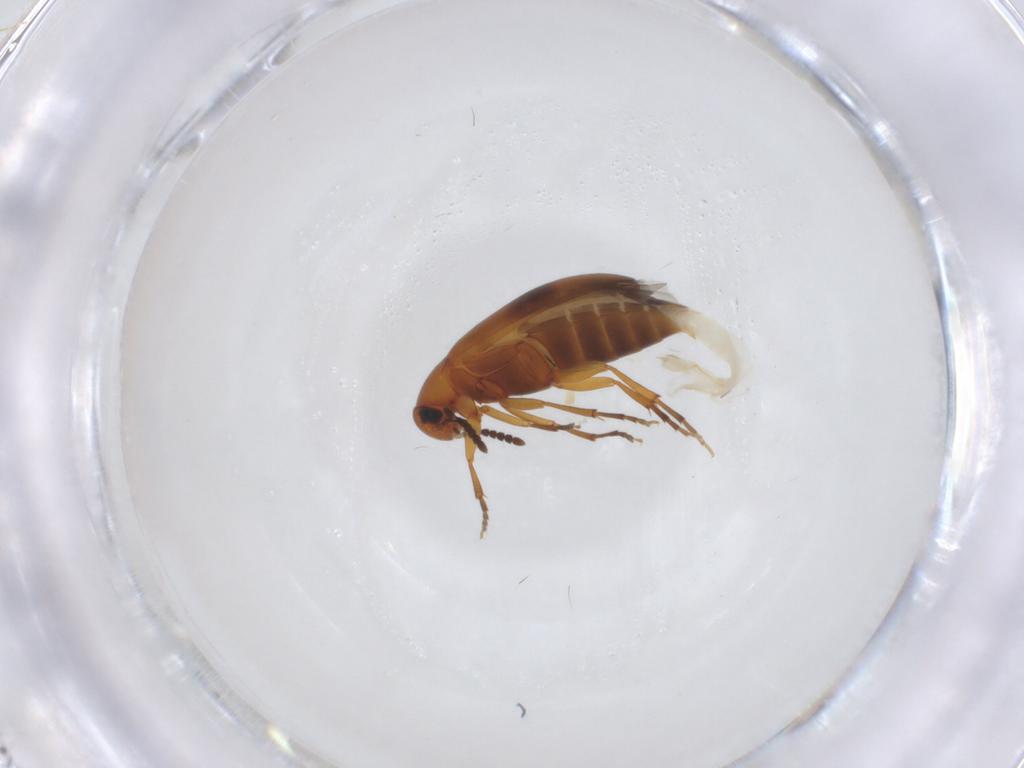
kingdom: Animalia
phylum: Arthropoda
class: Insecta
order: Coleoptera
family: Scraptiidae
